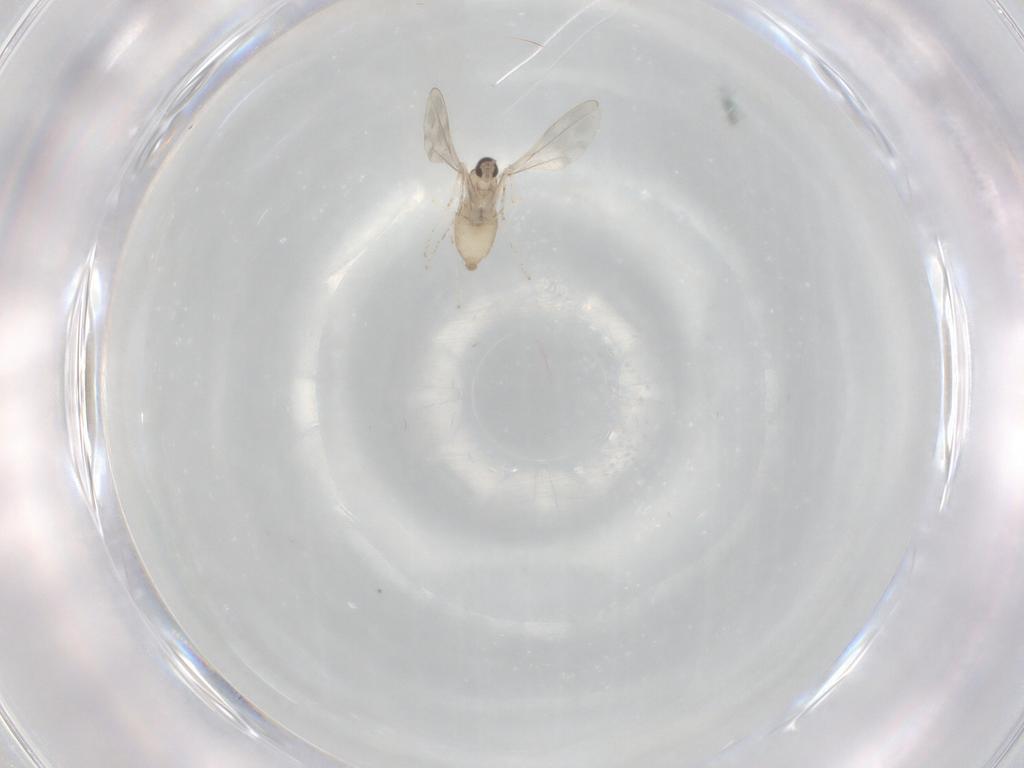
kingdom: Animalia
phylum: Arthropoda
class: Insecta
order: Diptera
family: Cecidomyiidae
